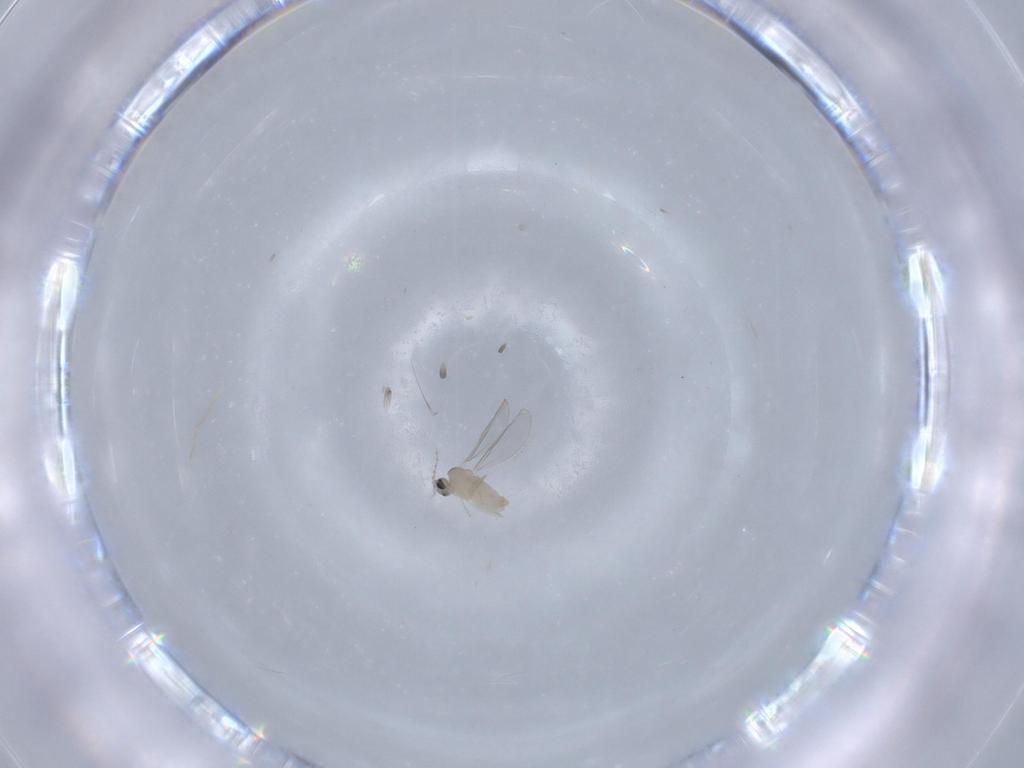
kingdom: Animalia
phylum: Arthropoda
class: Insecta
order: Diptera
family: Cecidomyiidae
